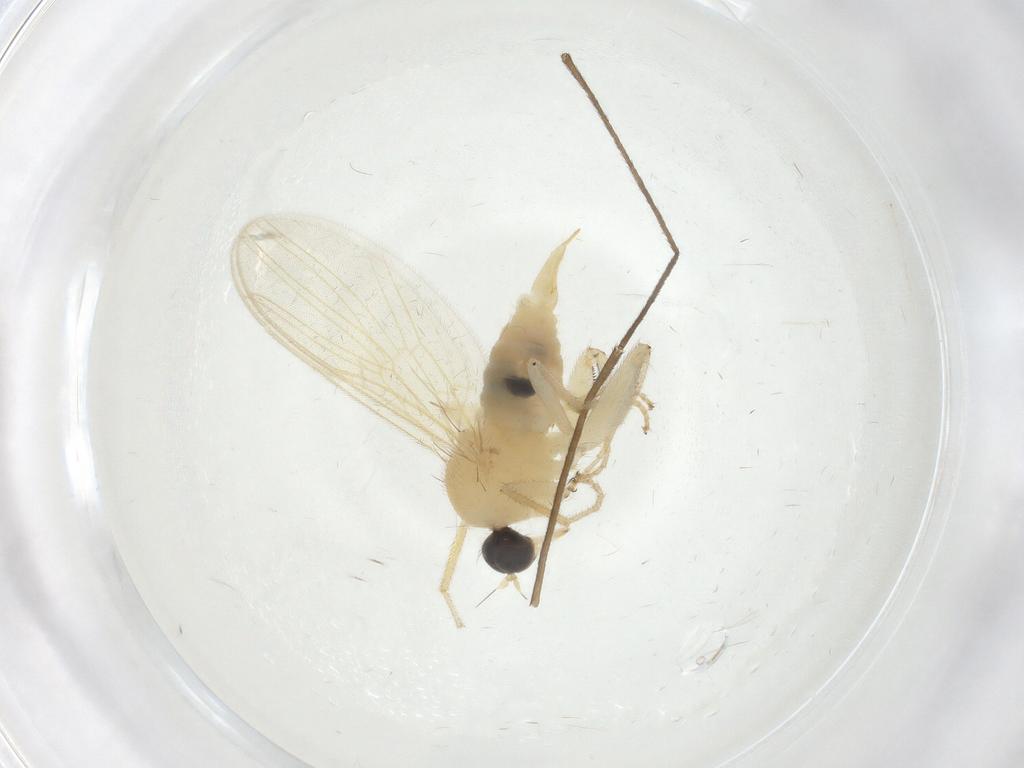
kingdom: Animalia
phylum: Arthropoda
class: Insecta
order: Diptera
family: Hybotidae
